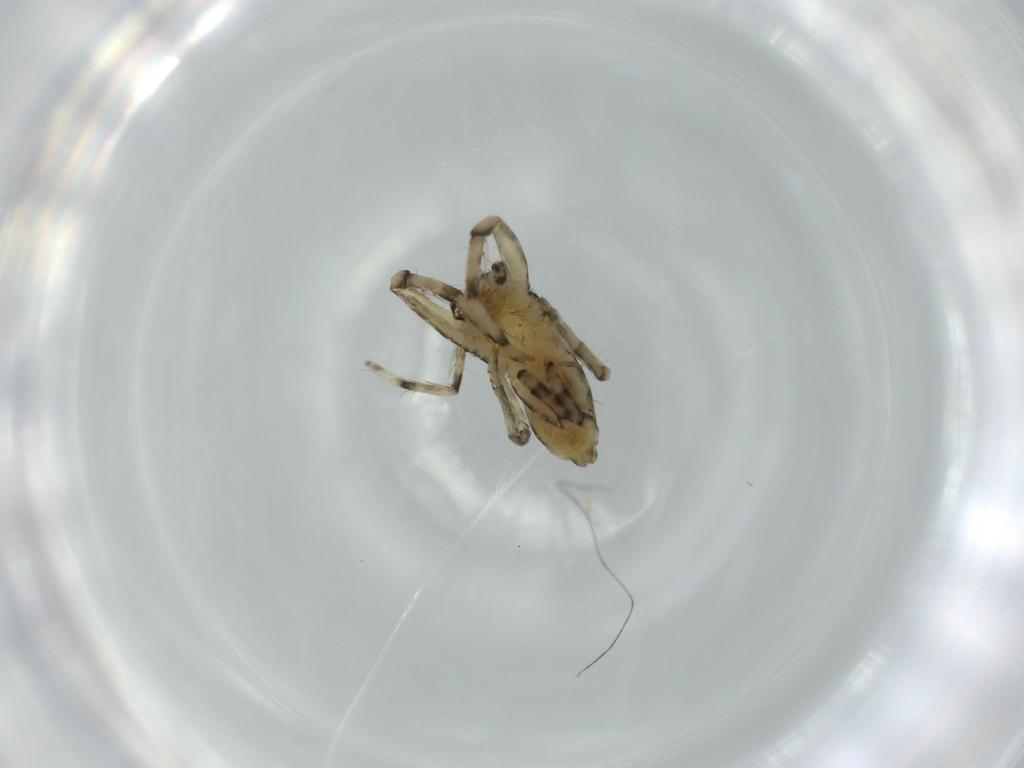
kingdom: Animalia
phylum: Arthropoda
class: Arachnida
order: Araneae
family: Senoculidae
